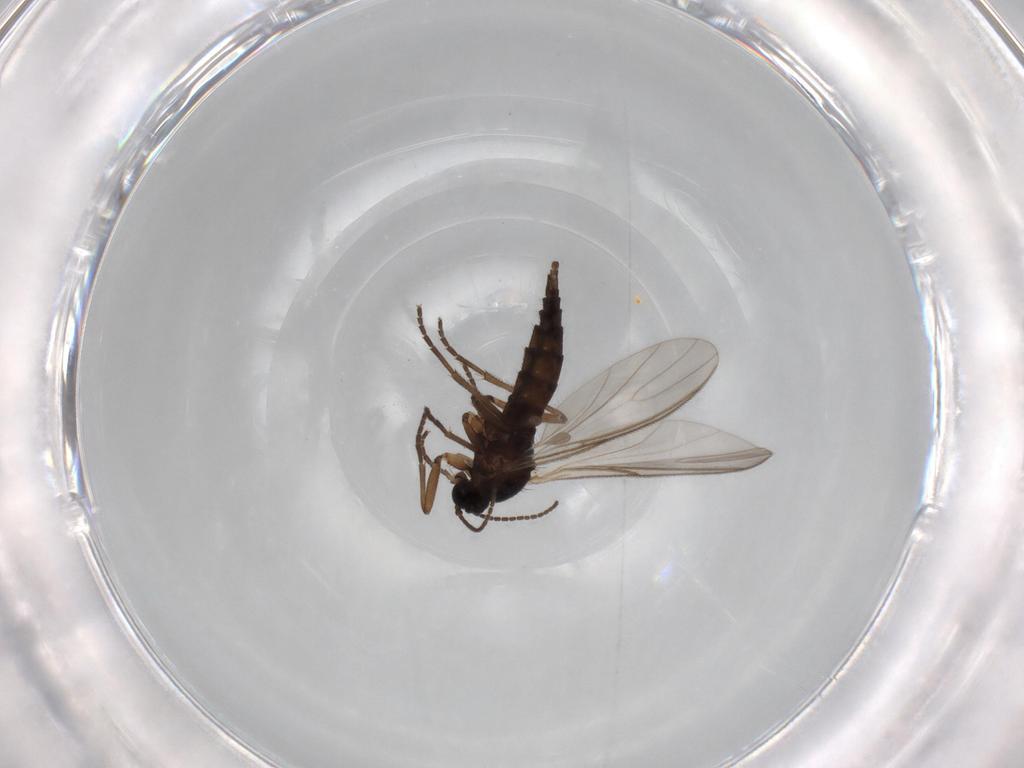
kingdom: Animalia
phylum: Arthropoda
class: Insecta
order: Diptera
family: Sciaridae
